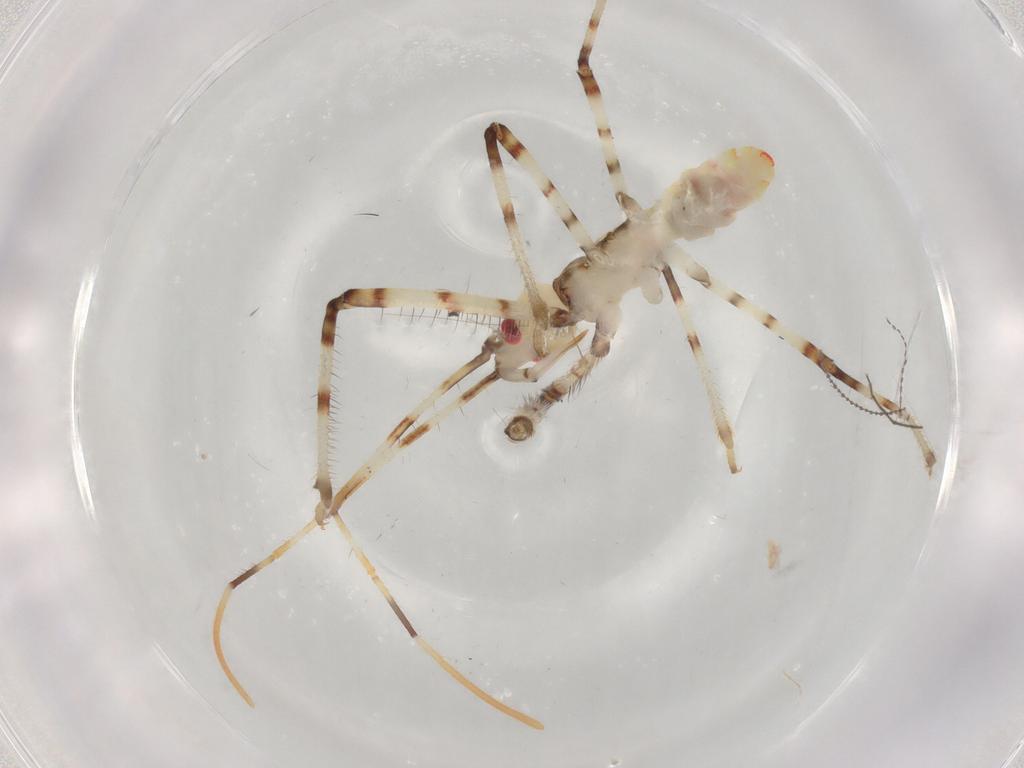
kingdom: Animalia
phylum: Arthropoda
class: Insecta
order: Hemiptera
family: Reduviidae
